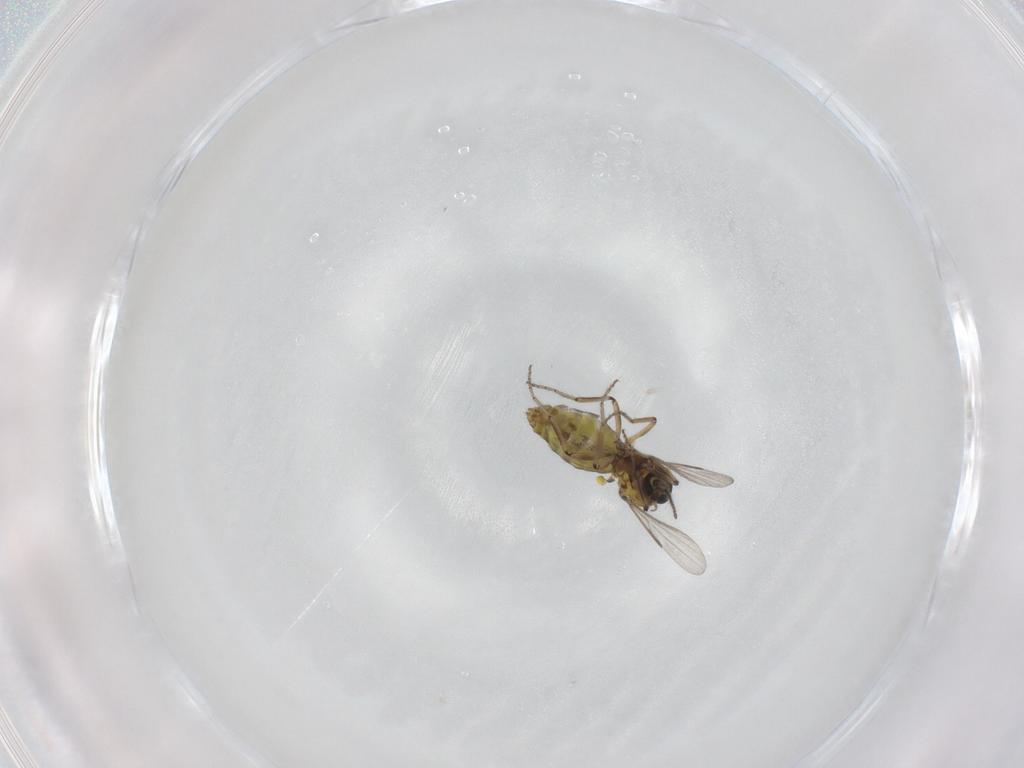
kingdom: Animalia
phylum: Arthropoda
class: Insecta
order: Diptera
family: Ceratopogonidae
